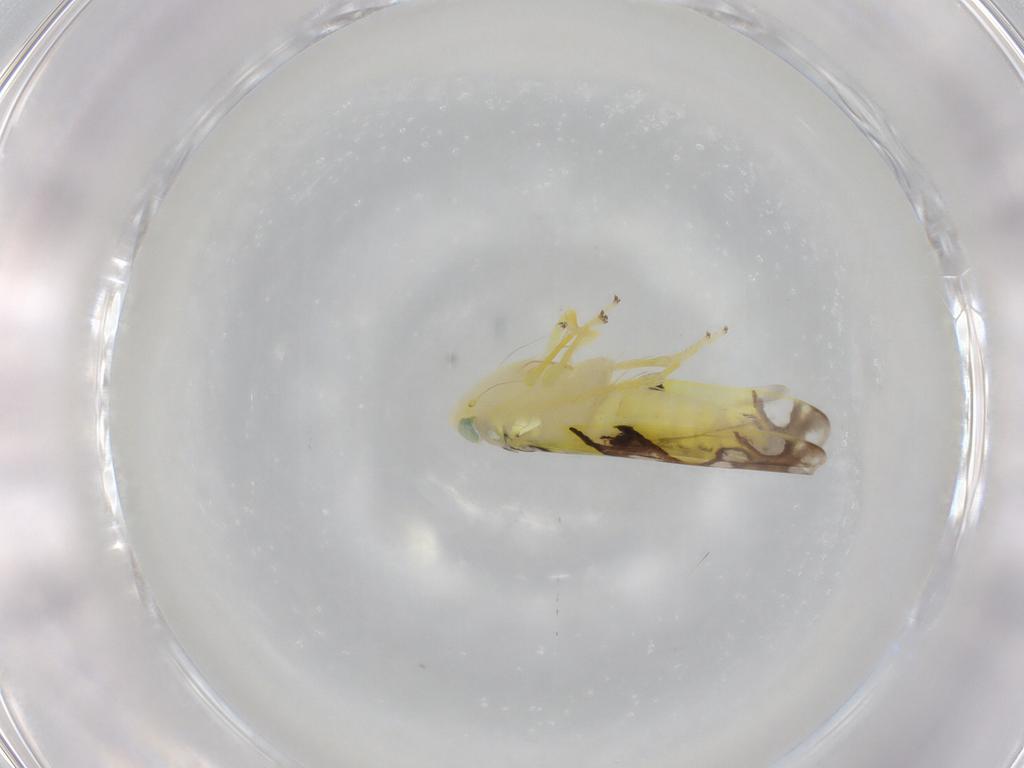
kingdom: Animalia
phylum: Arthropoda
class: Insecta
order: Hemiptera
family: Cicadellidae
